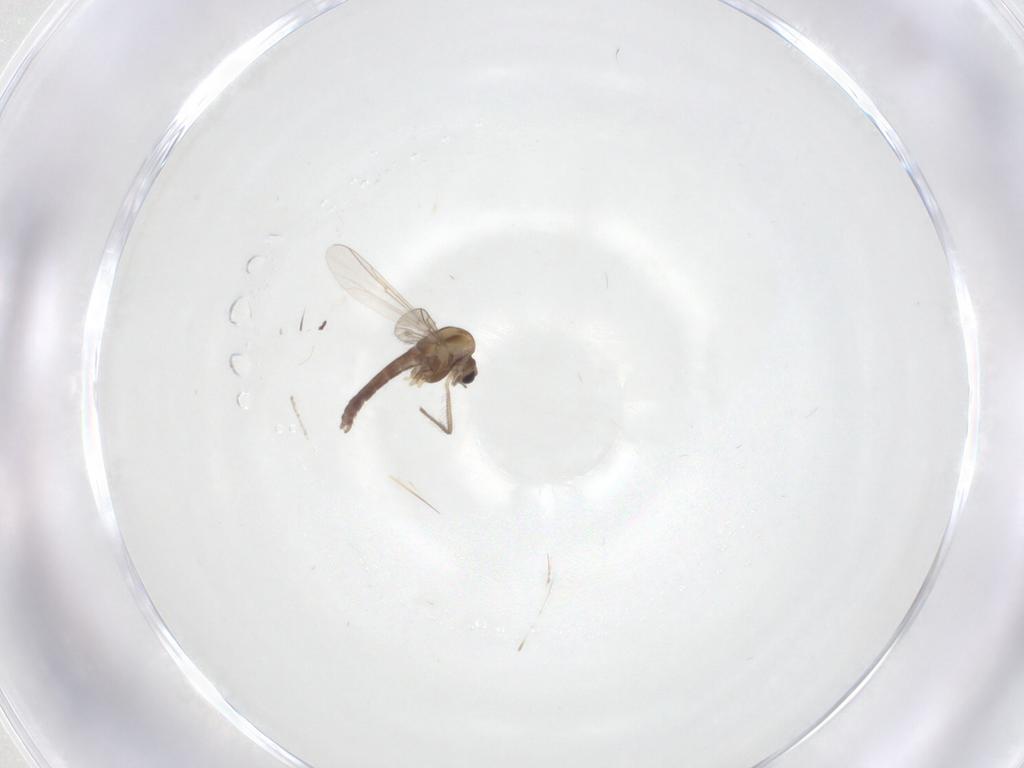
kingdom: Animalia
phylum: Arthropoda
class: Insecta
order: Diptera
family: Chironomidae
